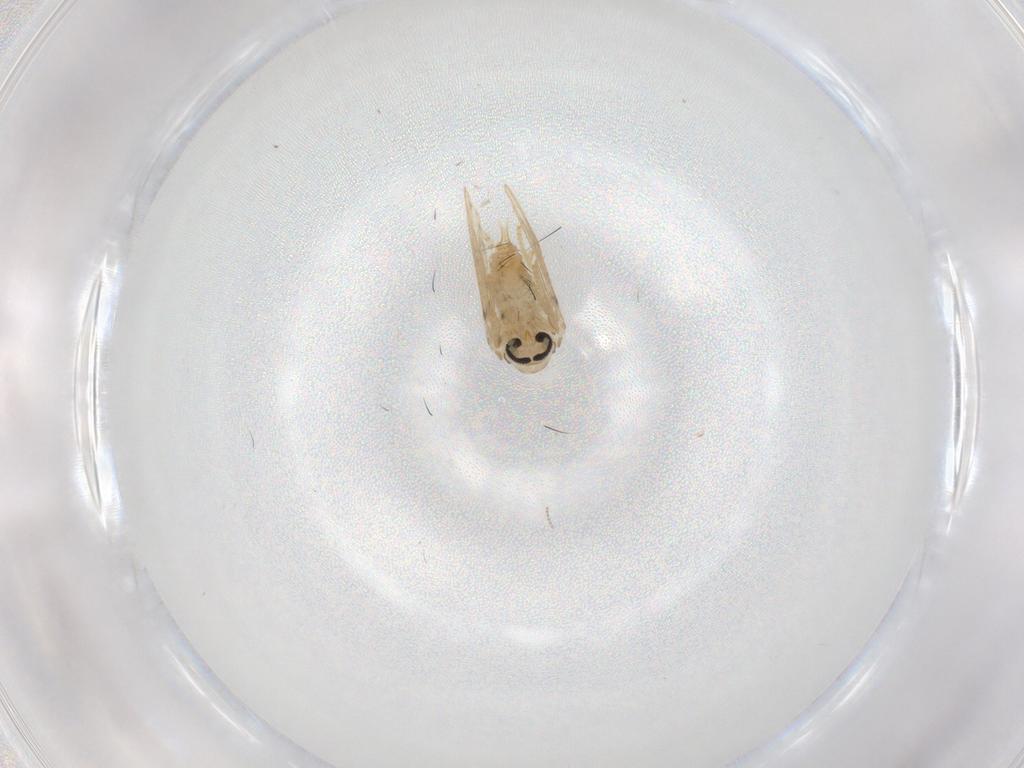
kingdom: Animalia
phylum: Arthropoda
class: Insecta
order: Diptera
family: Psychodidae
